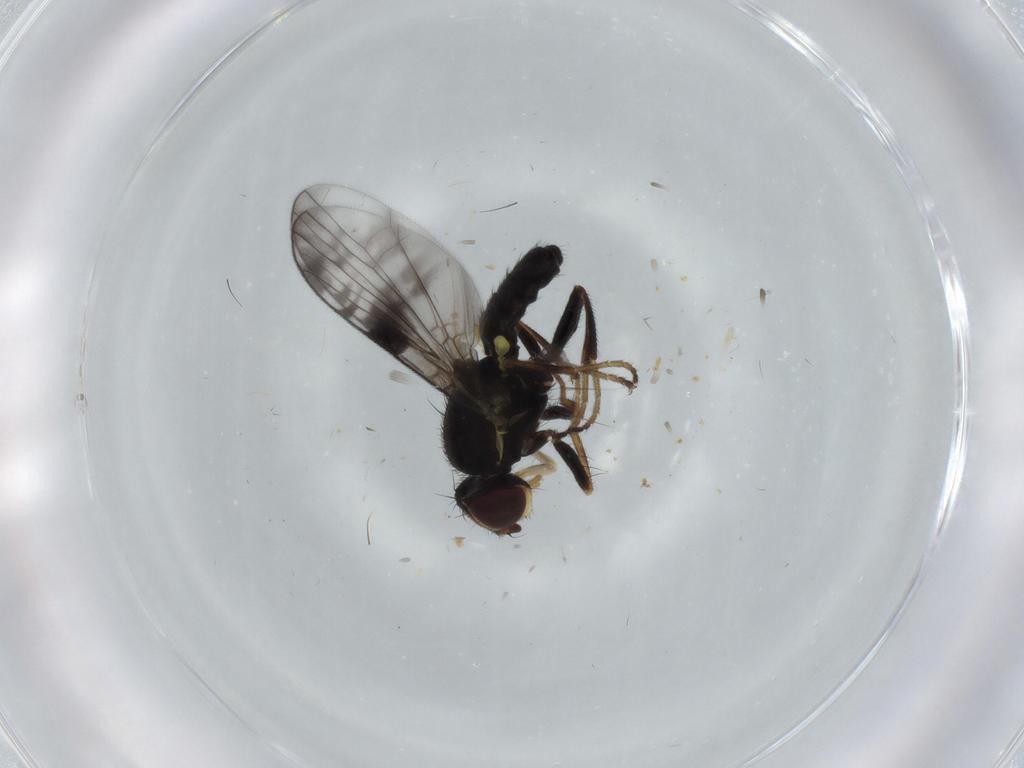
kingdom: Animalia
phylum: Arthropoda
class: Insecta
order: Diptera
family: Tephritidae
